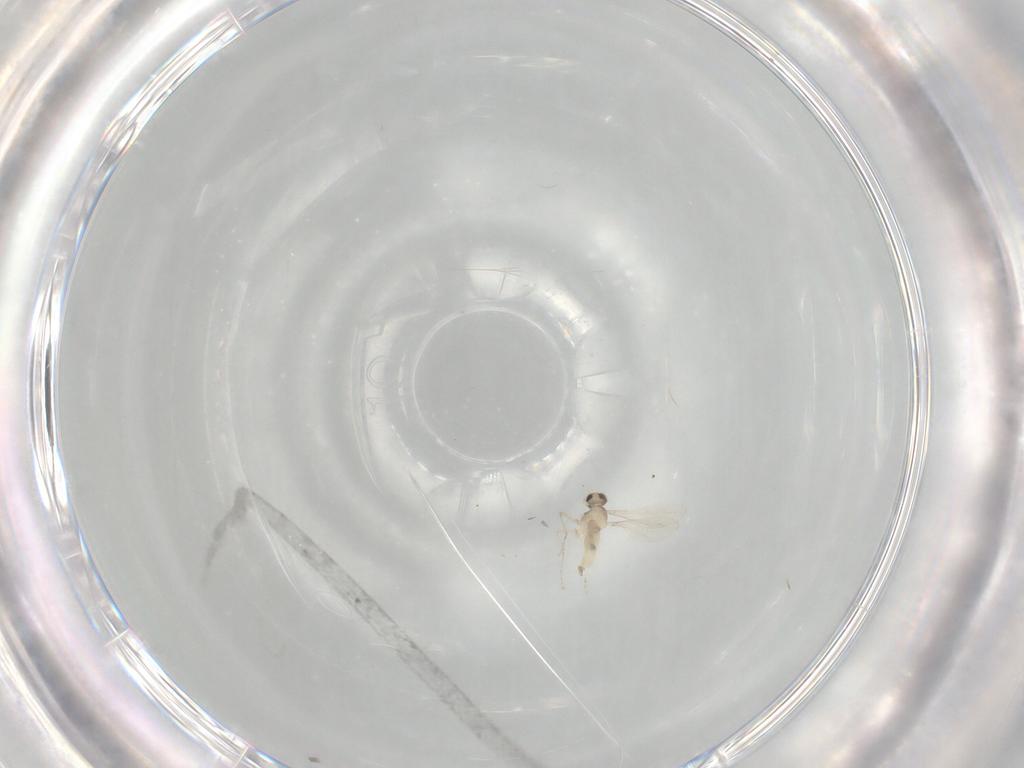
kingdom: Animalia
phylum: Arthropoda
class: Insecta
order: Diptera
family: Cecidomyiidae
